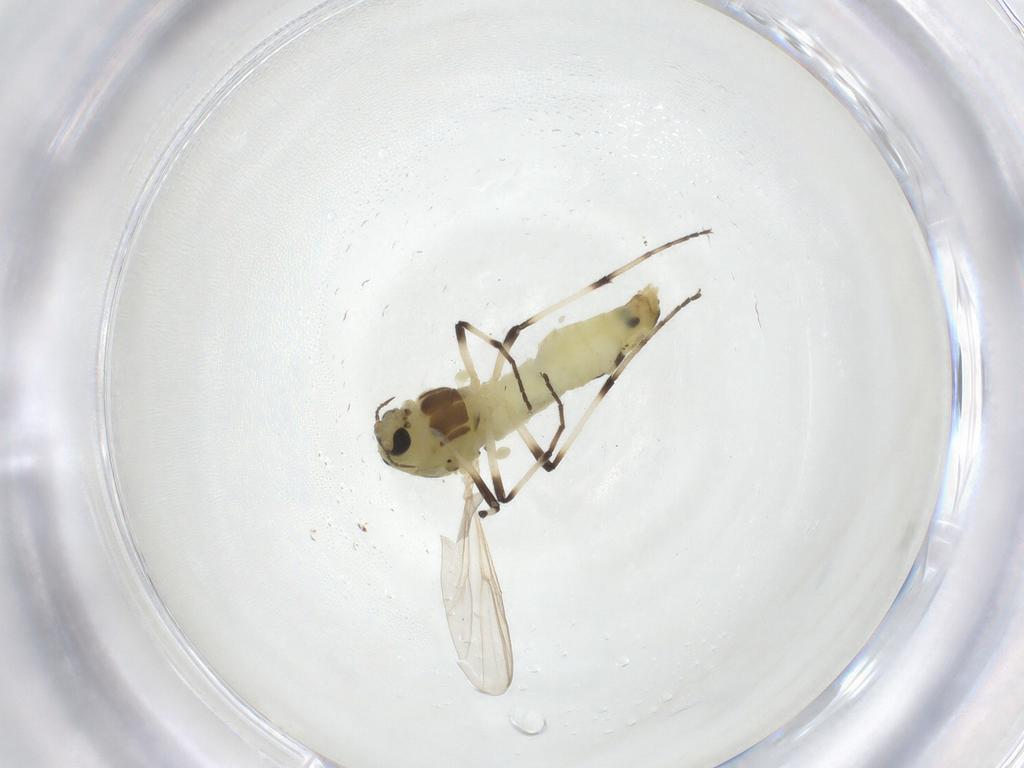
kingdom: Animalia
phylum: Arthropoda
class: Insecta
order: Diptera
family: Chironomidae
